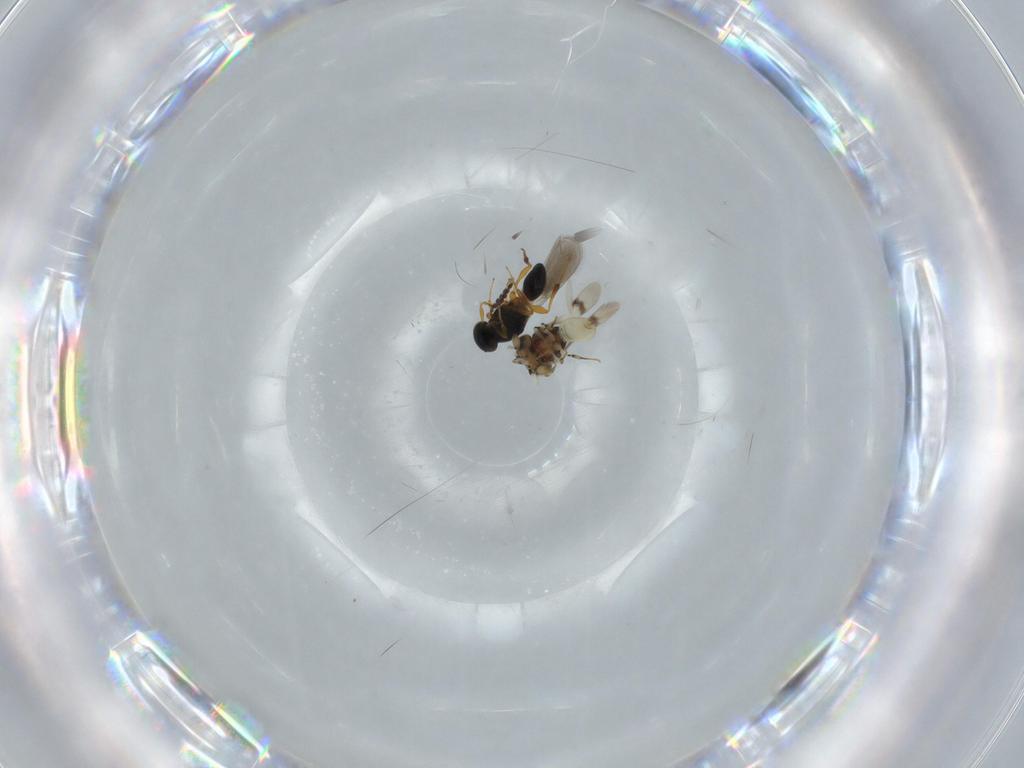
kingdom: Animalia
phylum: Arthropoda
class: Insecta
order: Hymenoptera
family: Scelionidae
